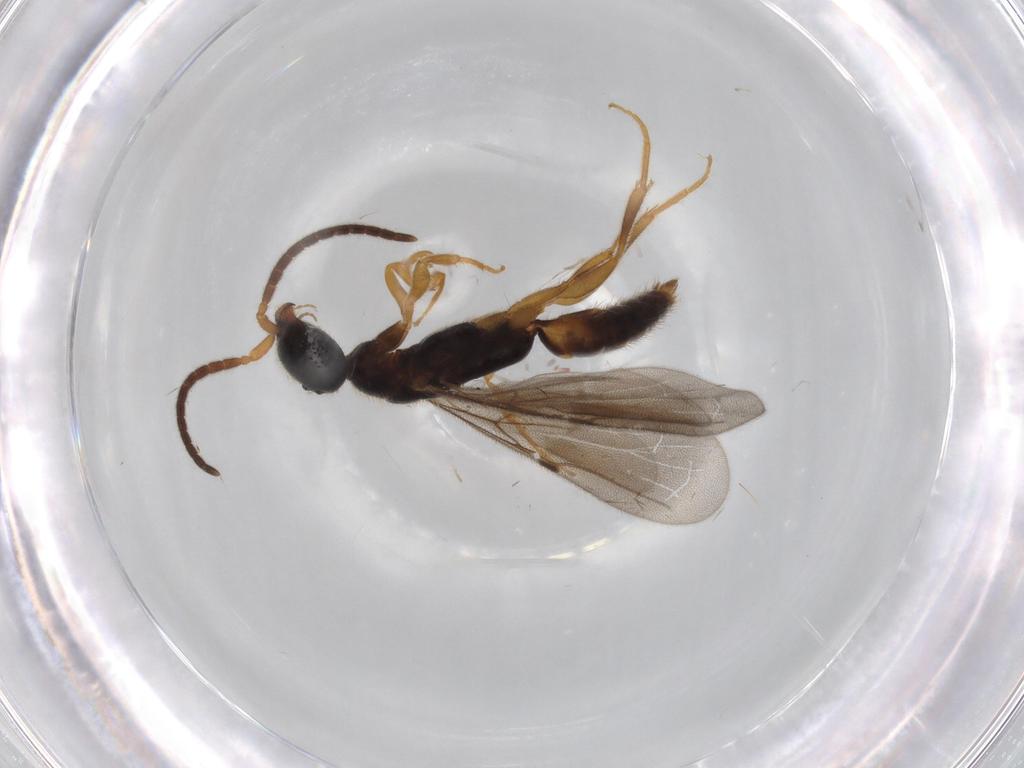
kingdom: Animalia
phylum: Arthropoda
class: Insecta
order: Hymenoptera
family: Bethylidae
